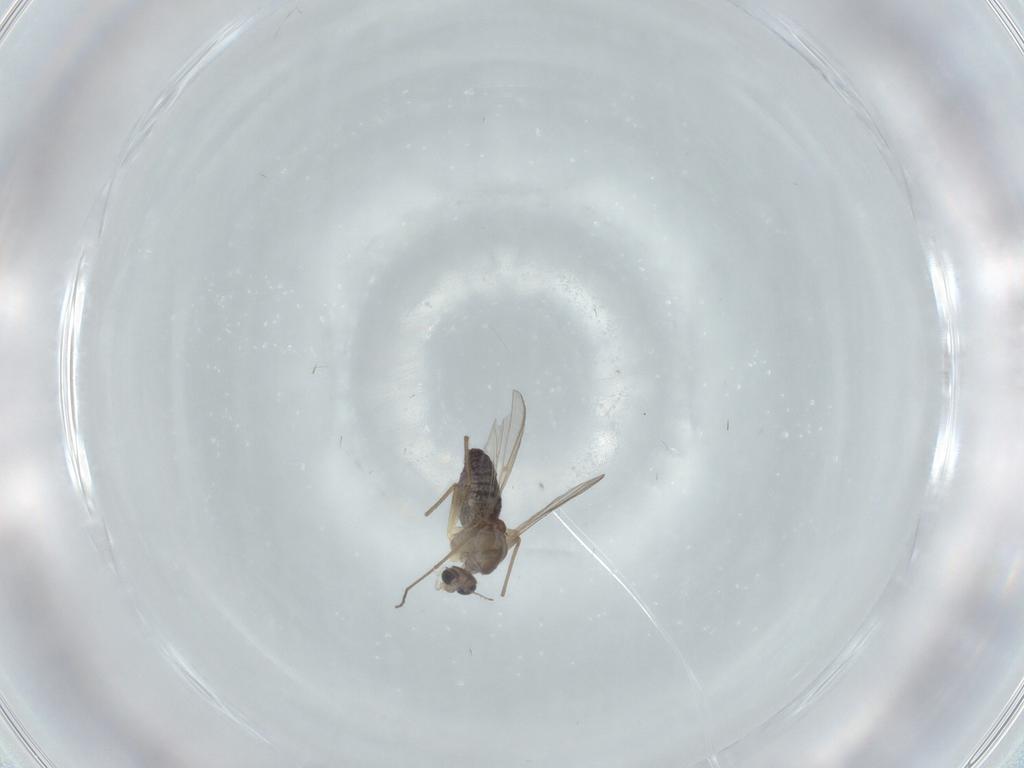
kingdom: Animalia
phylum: Arthropoda
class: Insecta
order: Diptera
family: Chironomidae
